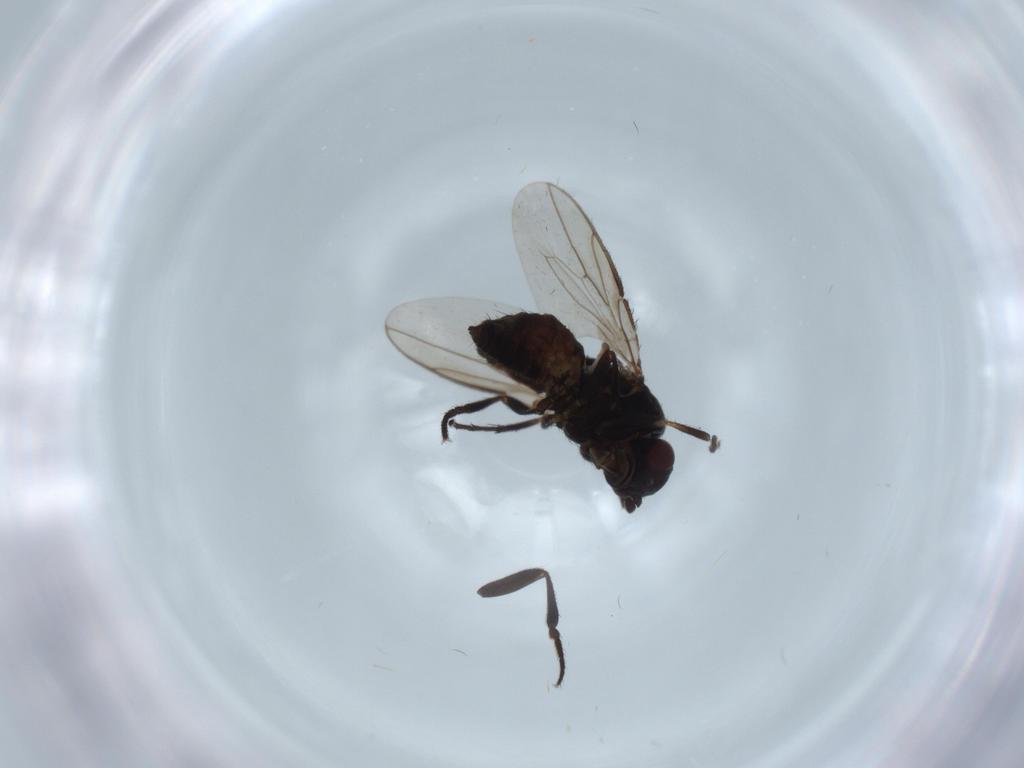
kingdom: Animalia
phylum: Arthropoda
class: Insecta
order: Diptera
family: Sphaeroceridae
